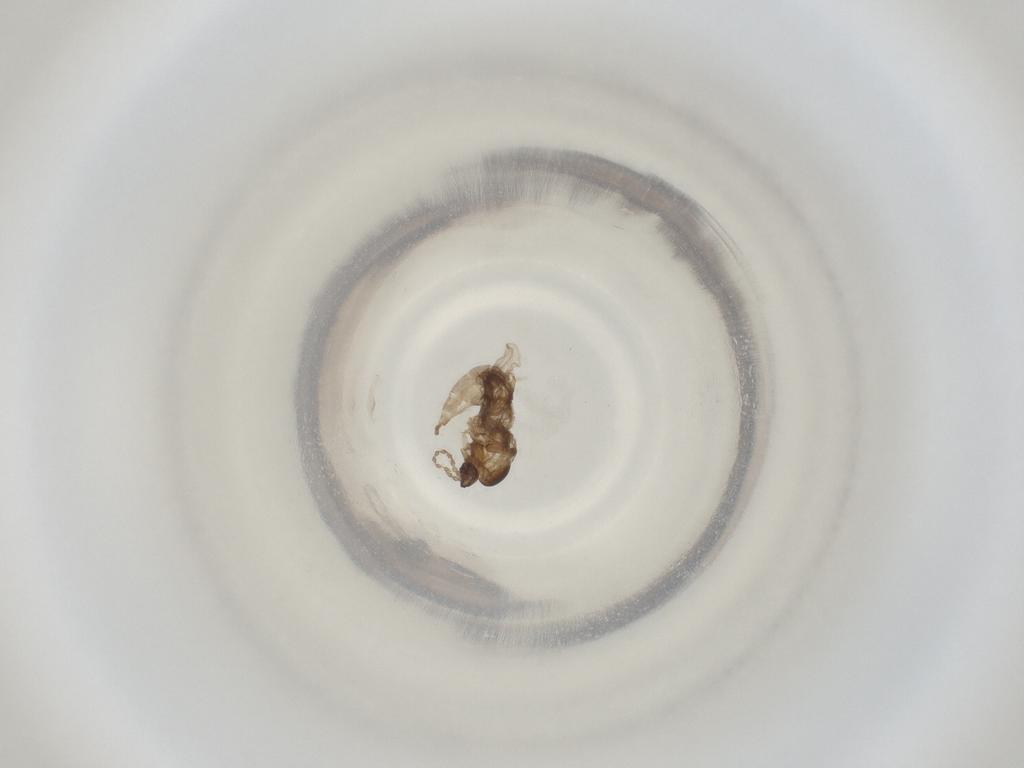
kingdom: Animalia
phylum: Arthropoda
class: Insecta
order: Diptera
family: Cecidomyiidae
